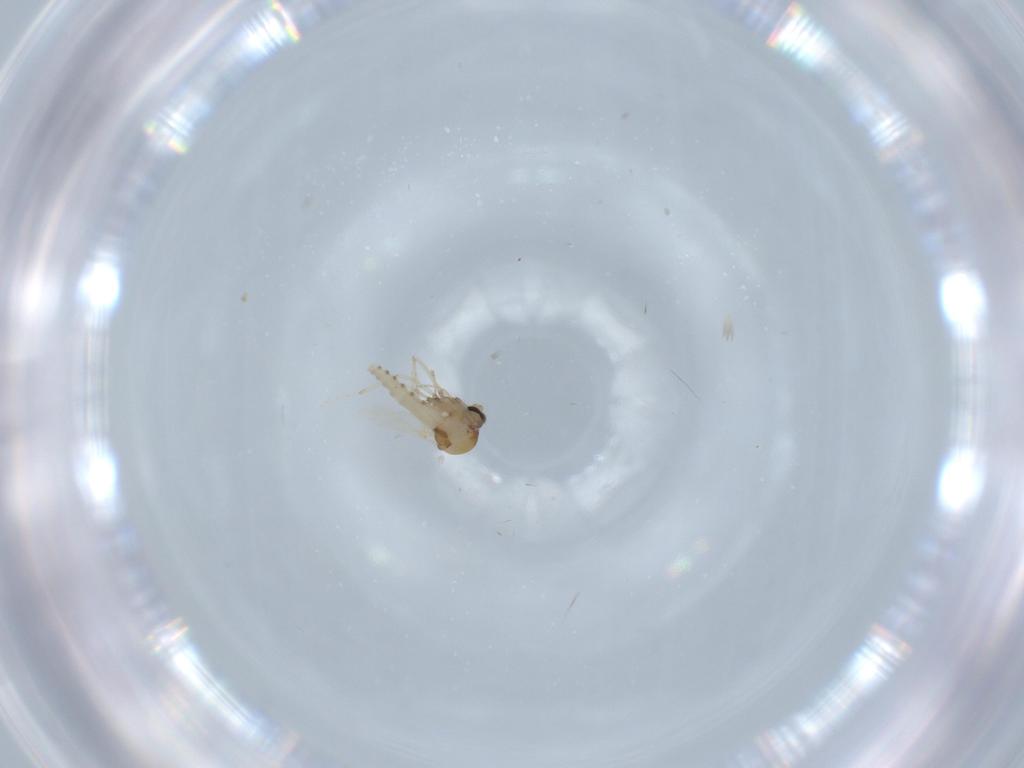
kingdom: Animalia
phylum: Arthropoda
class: Insecta
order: Diptera
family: Ceratopogonidae
